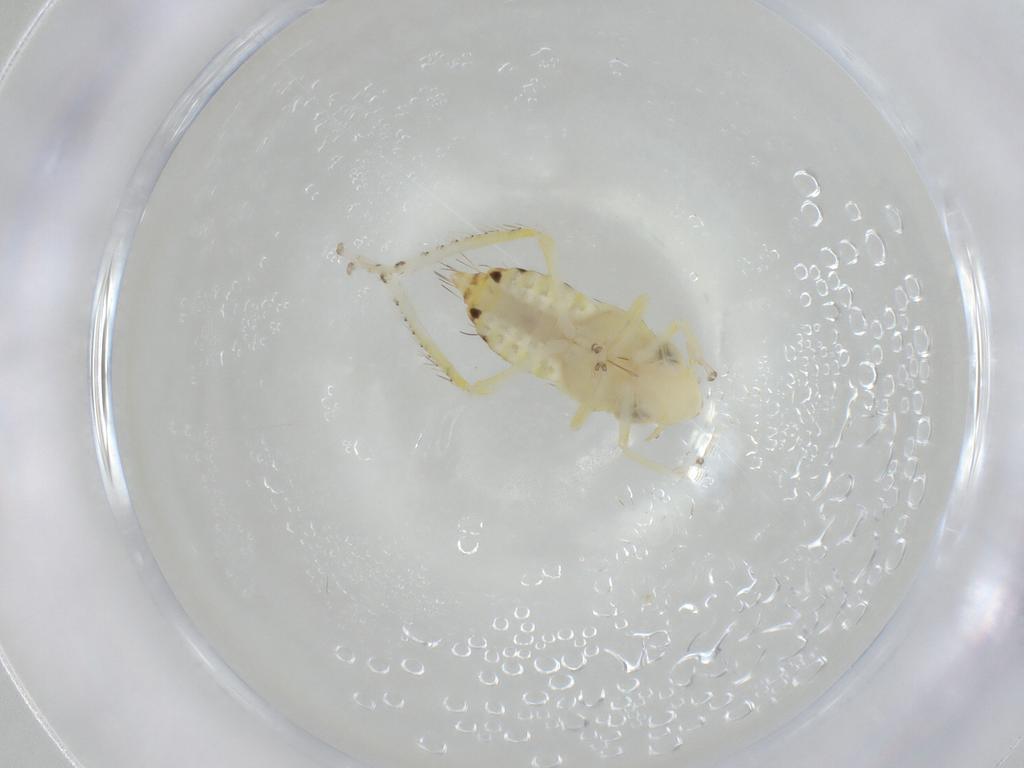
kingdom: Animalia
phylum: Arthropoda
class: Insecta
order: Hemiptera
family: Cicadellidae
